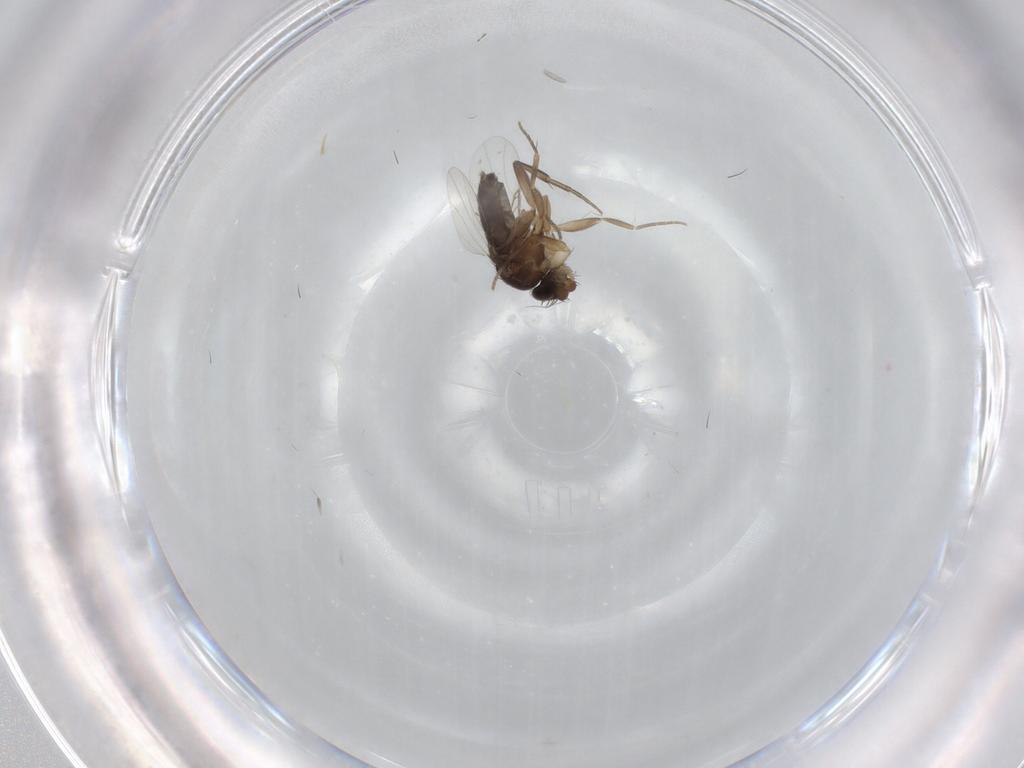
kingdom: Animalia
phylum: Arthropoda
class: Insecta
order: Diptera
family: Phoridae
